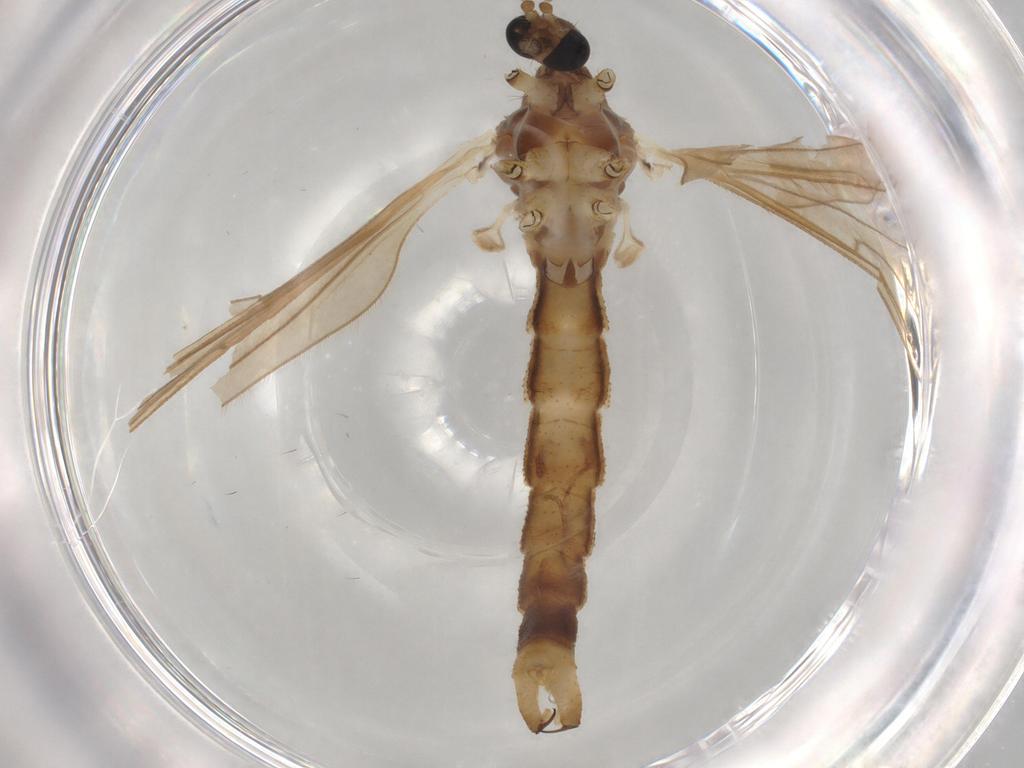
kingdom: Animalia
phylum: Arthropoda
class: Insecta
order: Diptera
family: Limoniidae
